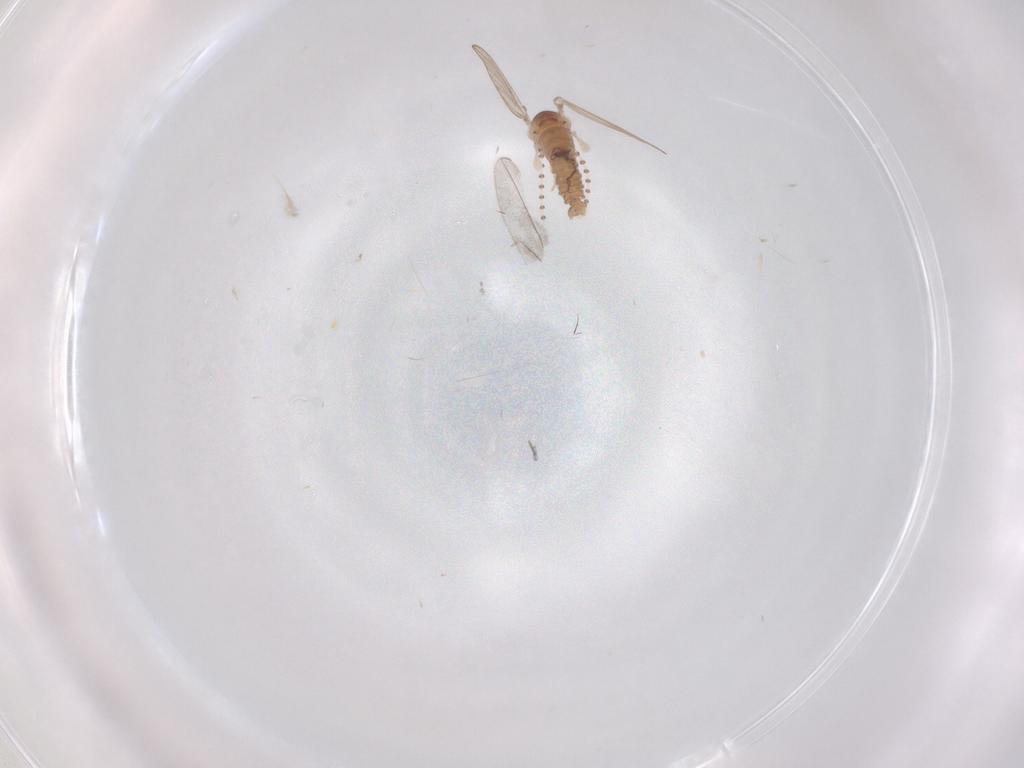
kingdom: Animalia
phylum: Arthropoda
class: Insecta
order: Diptera
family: Psychodidae
